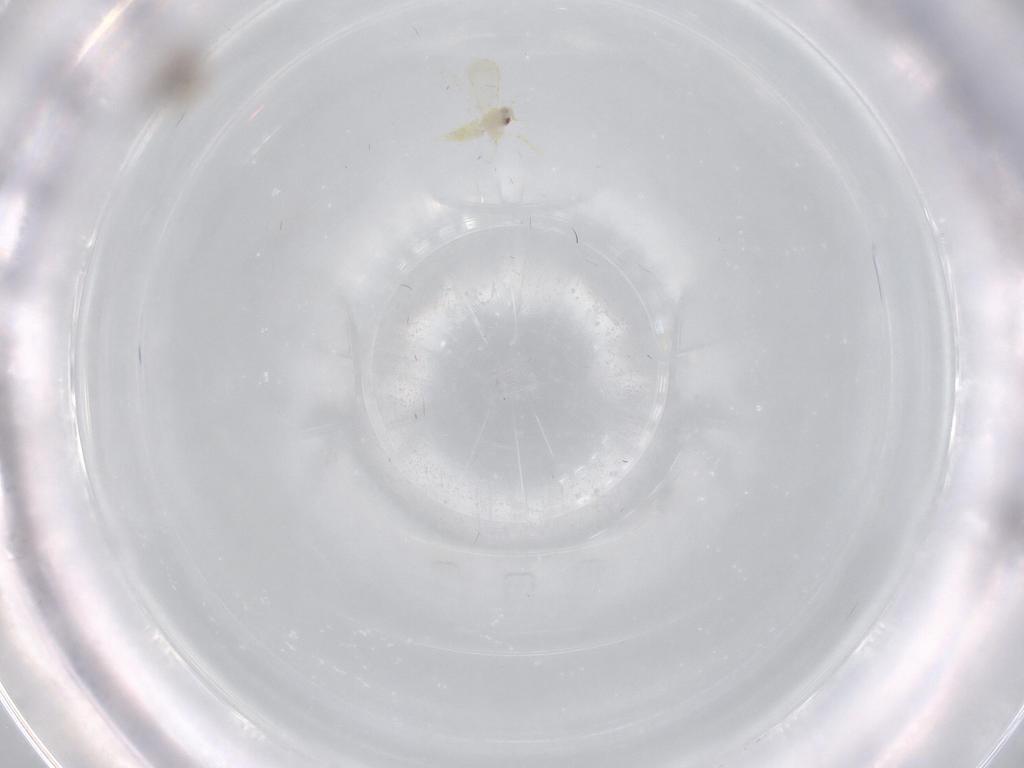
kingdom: Animalia
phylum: Arthropoda
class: Insecta
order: Diptera
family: Cecidomyiidae
